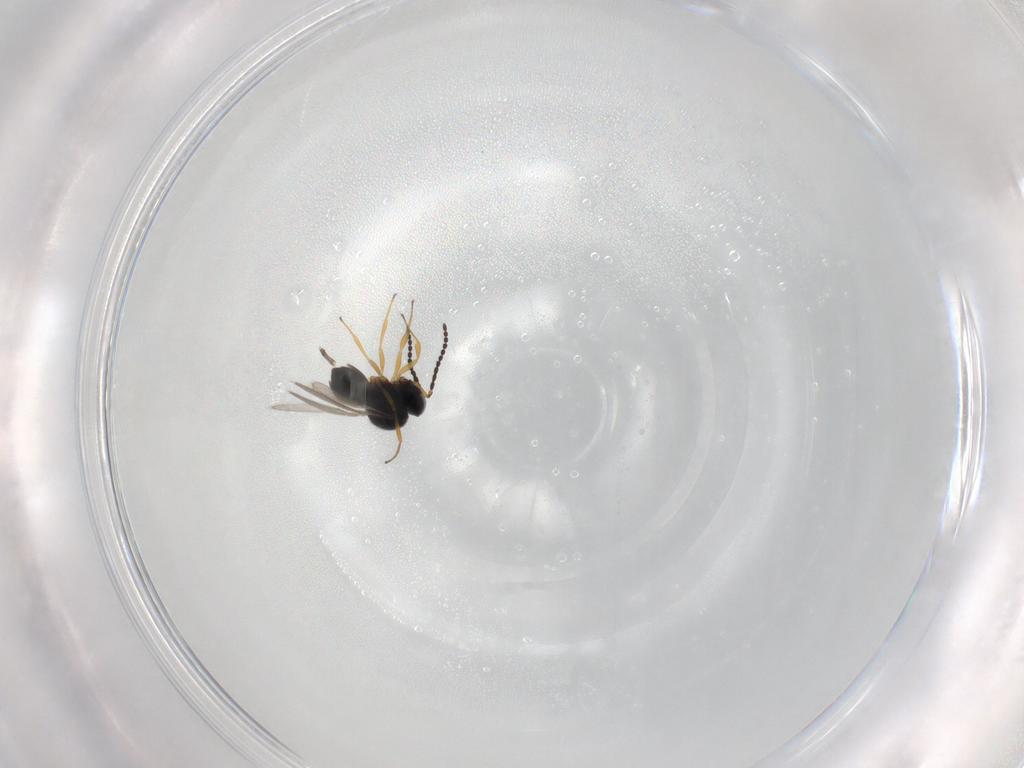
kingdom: Animalia
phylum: Arthropoda
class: Insecta
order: Hymenoptera
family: Scelionidae
